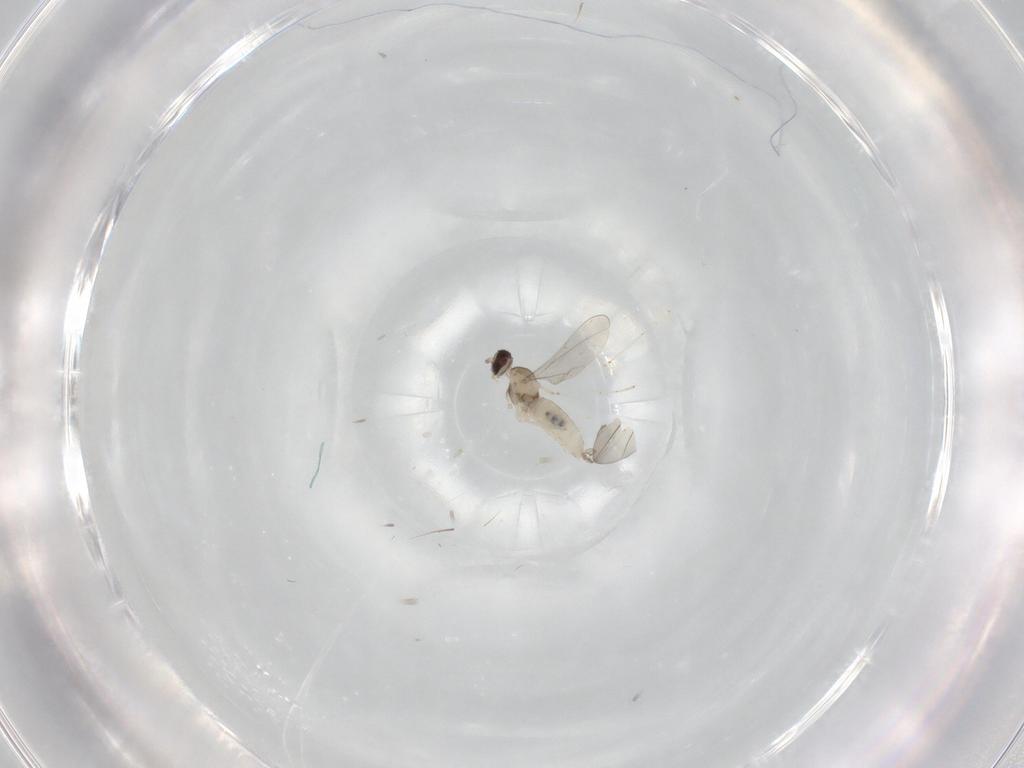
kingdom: Animalia
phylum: Arthropoda
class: Insecta
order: Diptera
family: Cecidomyiidae
